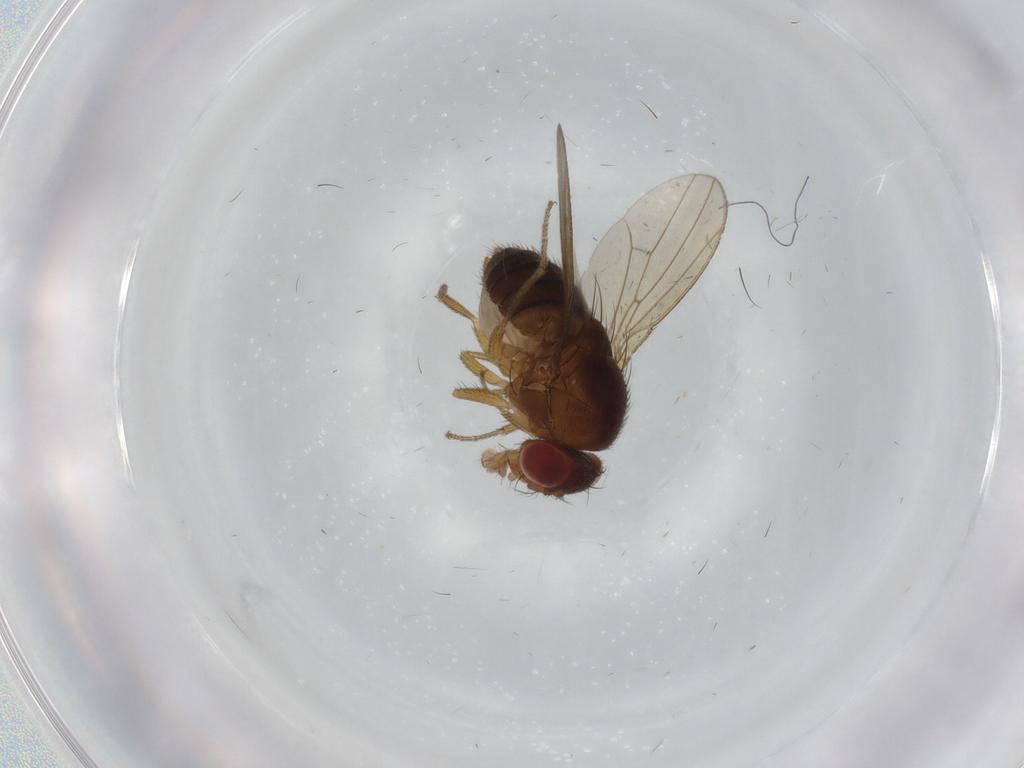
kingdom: Animalia
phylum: Arthropoda
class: Insecta
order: Diptera
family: Drosophilidae
